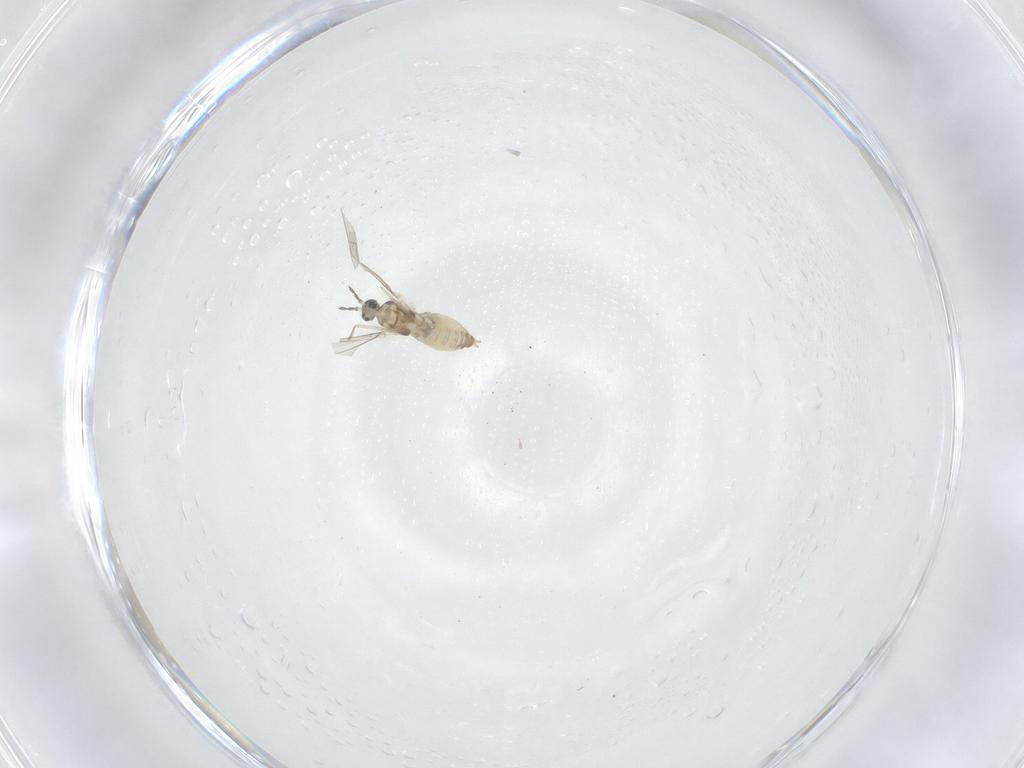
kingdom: Animalia
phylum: Arthropoda
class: Insecta
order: Diptera
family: Cecidomyiidae
